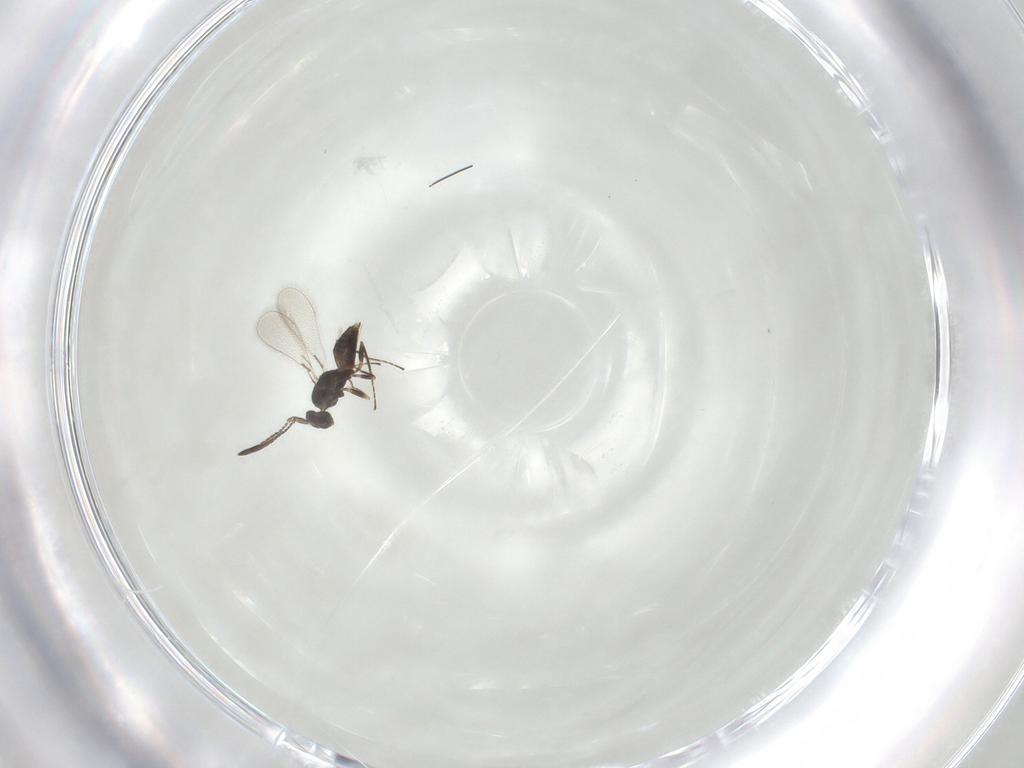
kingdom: Animalia
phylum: Arthropoda
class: Insecta
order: Hymenoptera
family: Mymaridae
